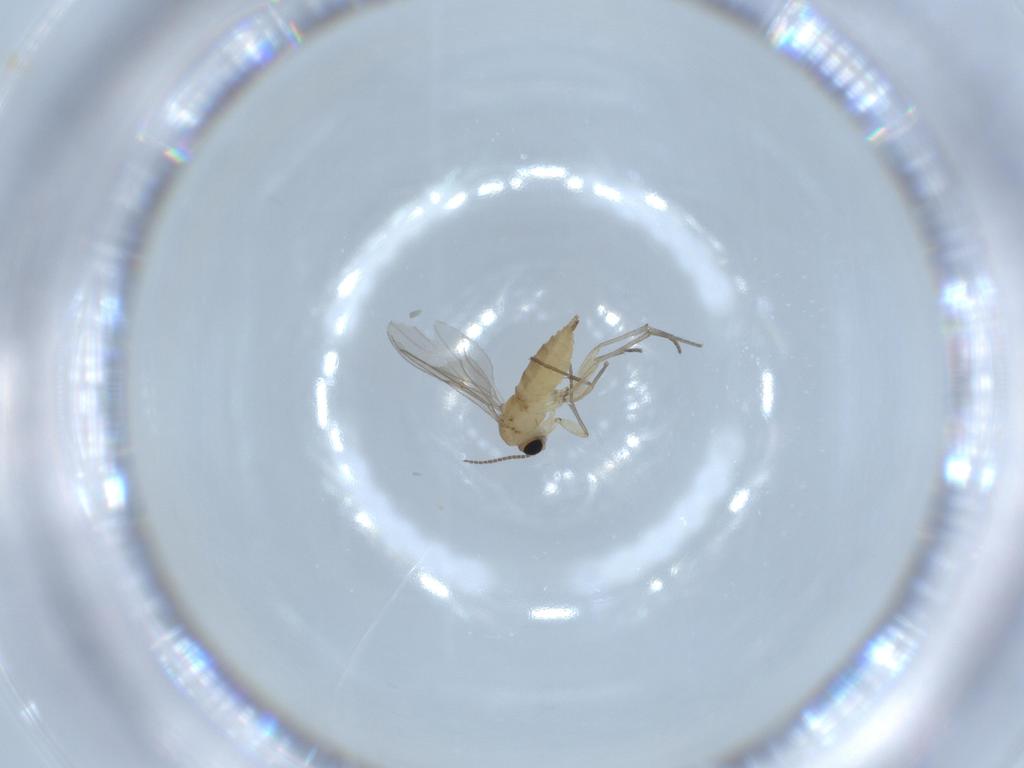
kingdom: Animalia
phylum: Arthropoda
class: Insecta
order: Diptera
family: Sciaridae
